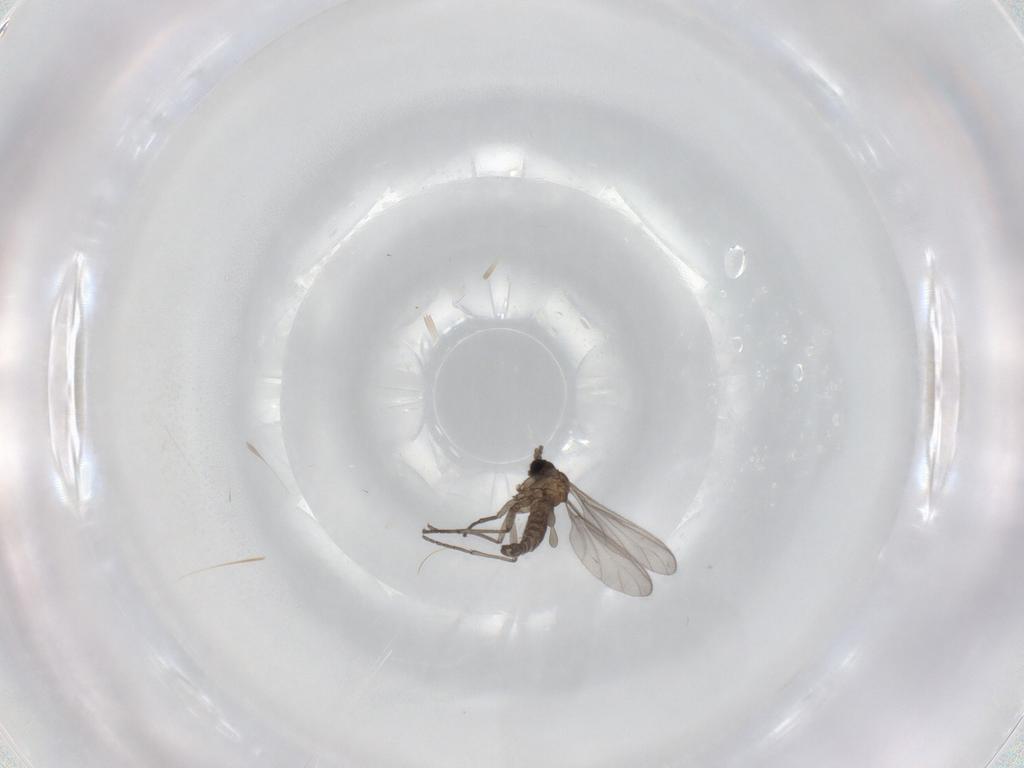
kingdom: Animalia
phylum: Arthropoda
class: Insecta
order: Diptera
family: Sciaridae
